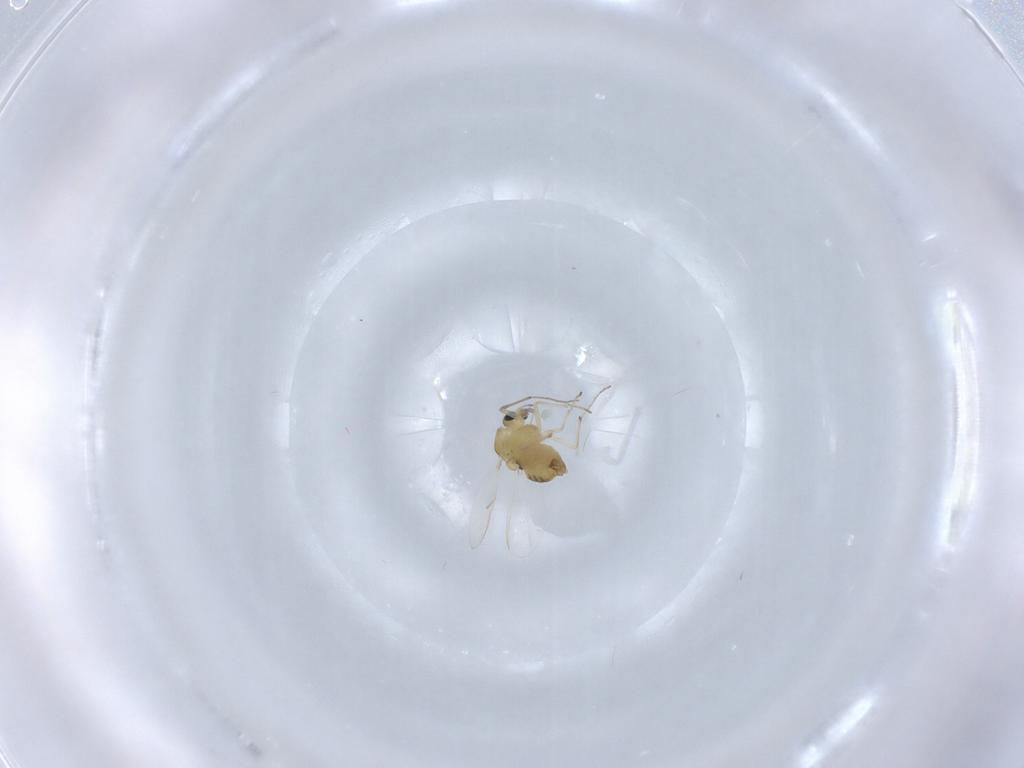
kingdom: Animalia
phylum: Arthropoda
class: Insecta
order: Diptera
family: Chironomidae
